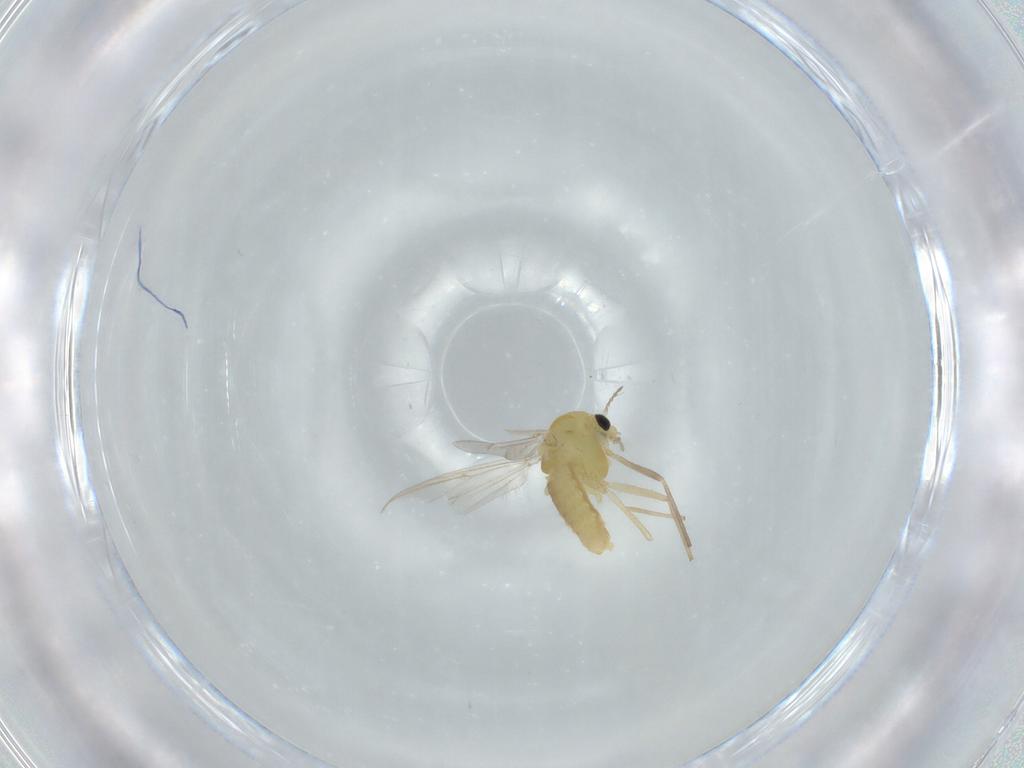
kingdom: Animalia
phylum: Arthropoda
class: Insecta
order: Diptera
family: Chironomidae
